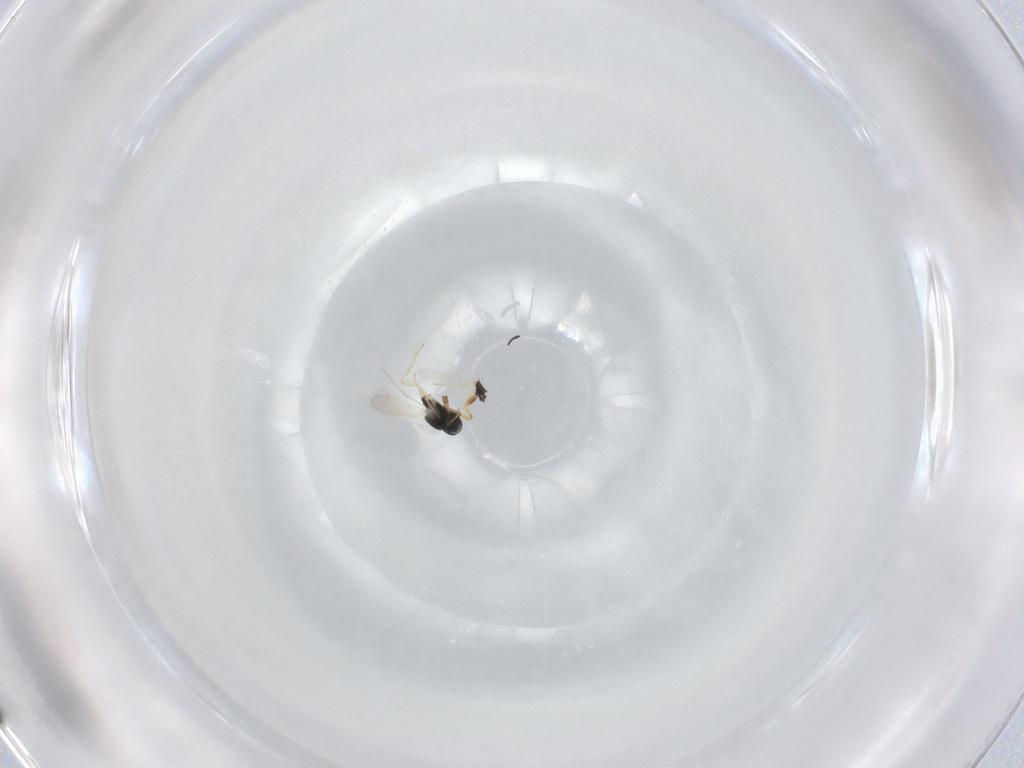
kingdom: Animalia
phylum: Arthropoda
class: Insecta
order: Hymenoptera
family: Scelionidae
